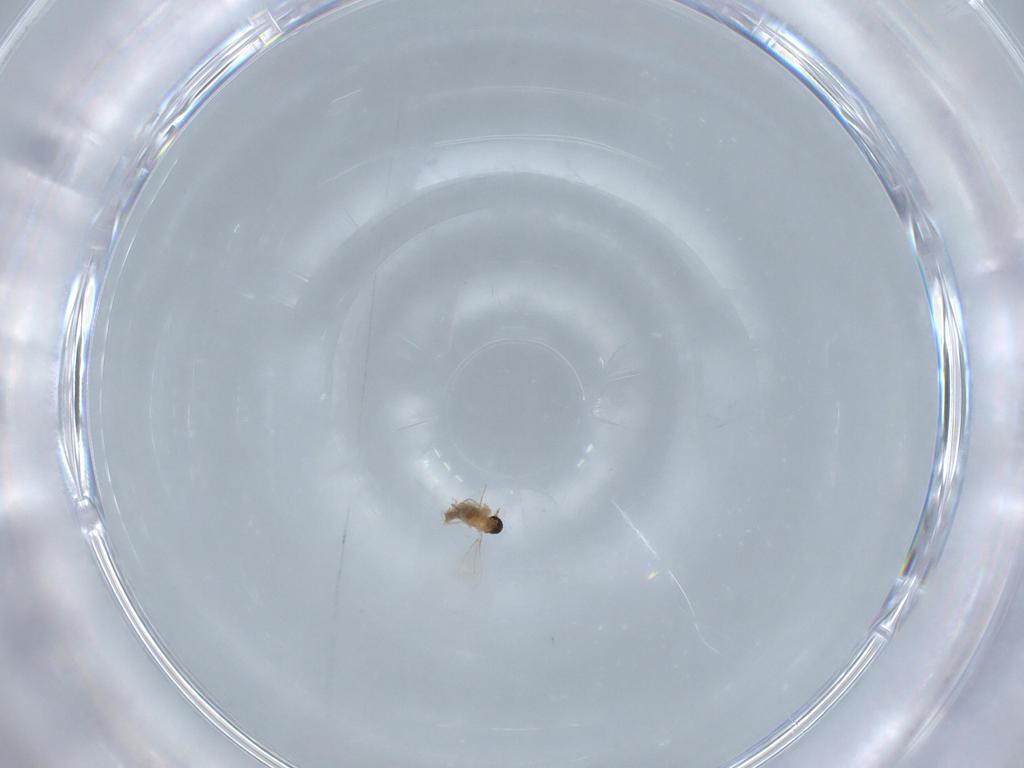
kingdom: Animalia
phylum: Arthropoda
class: Insecta
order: Diptera
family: Cecidomyiidae
